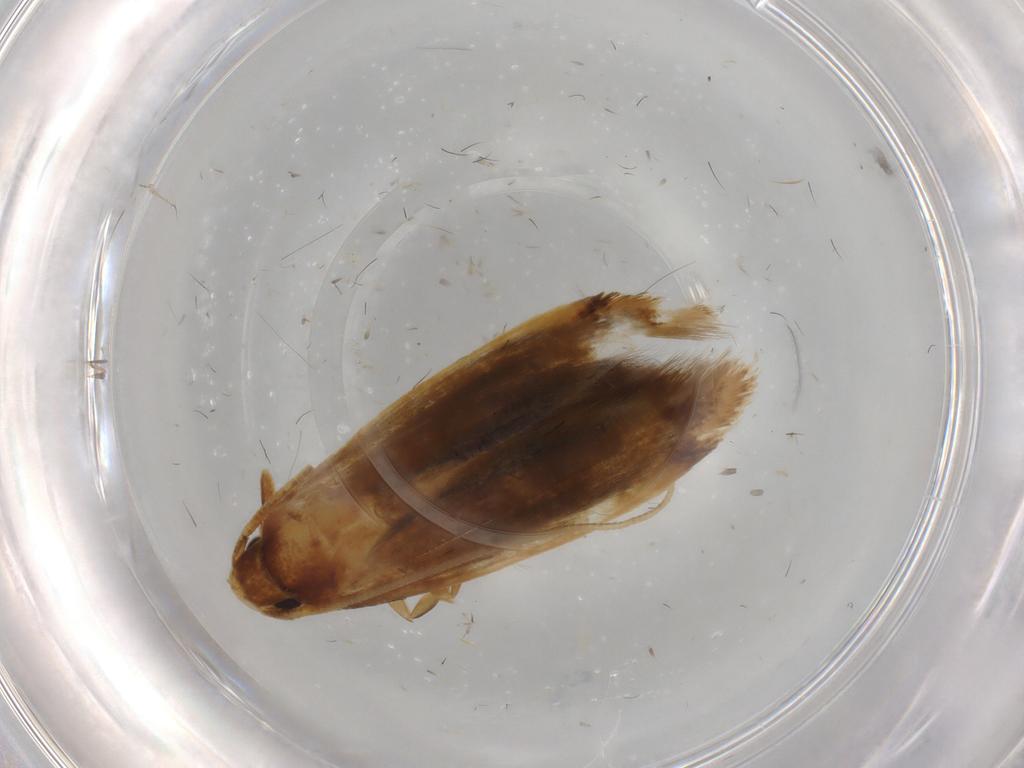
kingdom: Animalia
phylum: Arthropoda
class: Insecta
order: Lepidoptera
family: Tineidae
